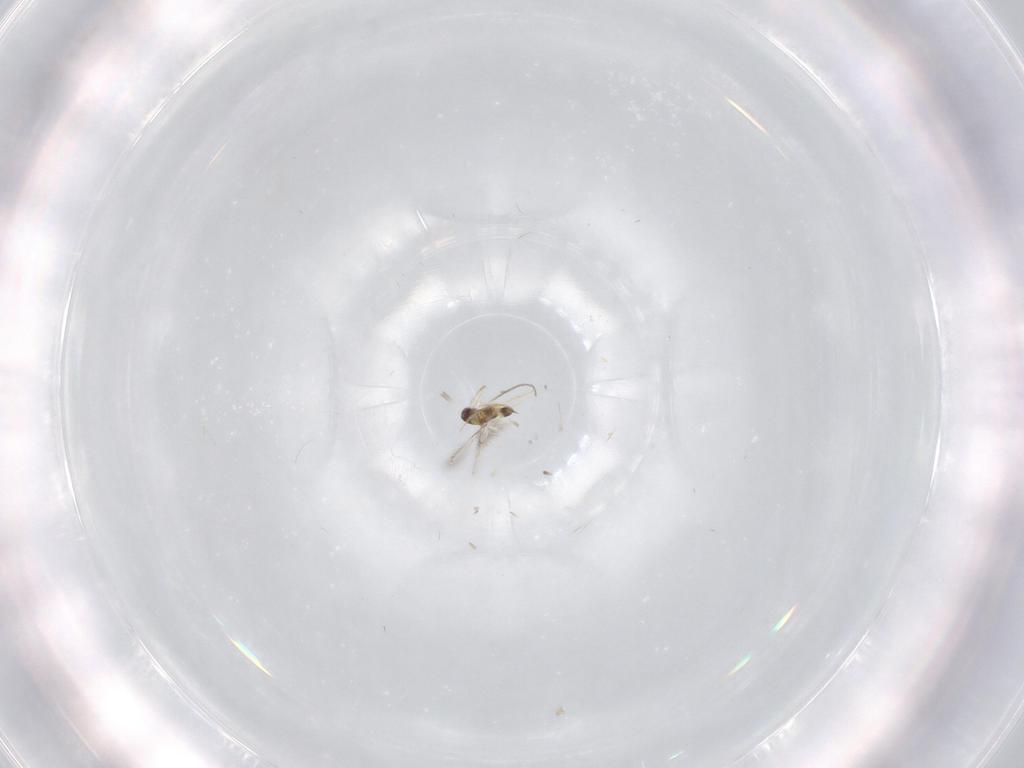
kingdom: Animalia
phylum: Arthropoda
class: Insecta
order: Hymenoptera
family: Mymaridae
